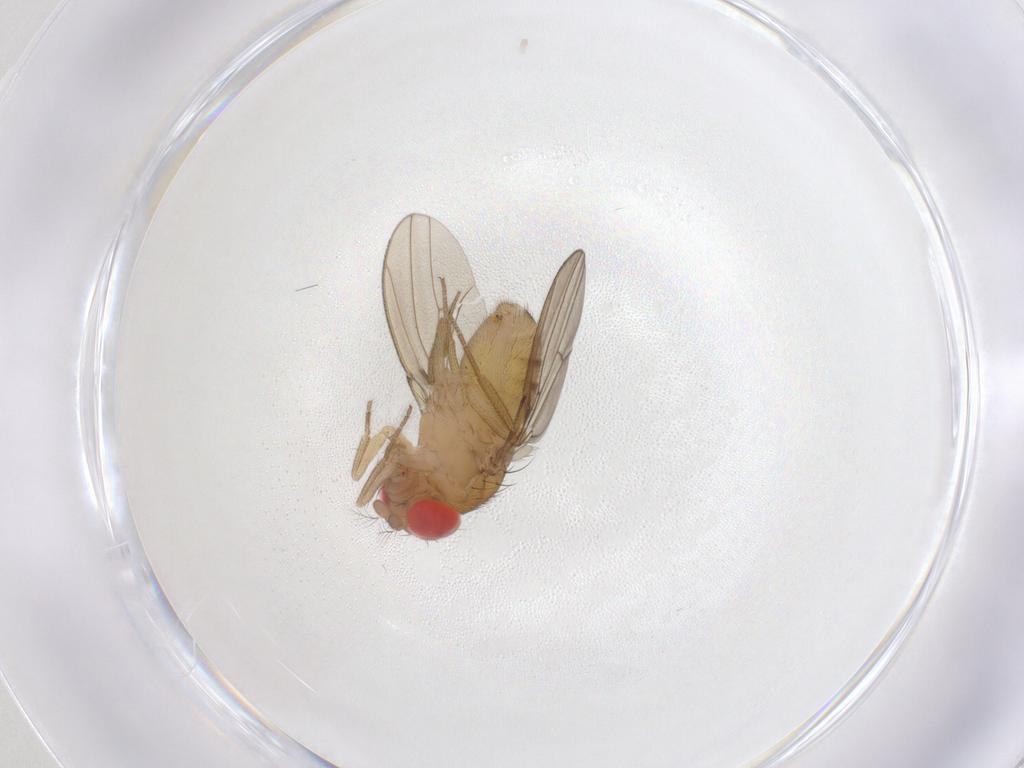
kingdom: Animalia
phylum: Arthropoda
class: Insecta
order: Diptera
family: Drosophilidae
